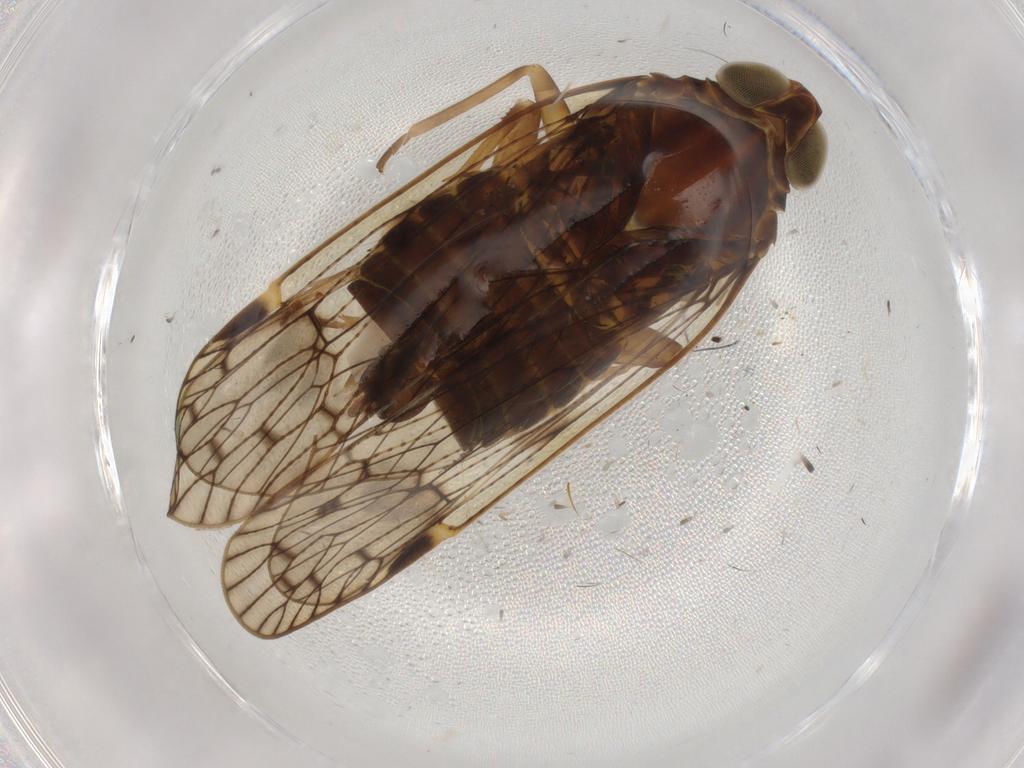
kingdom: Animalia
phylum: Arthropoda
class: Insecta
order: Hemiptera
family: Cixiidae
